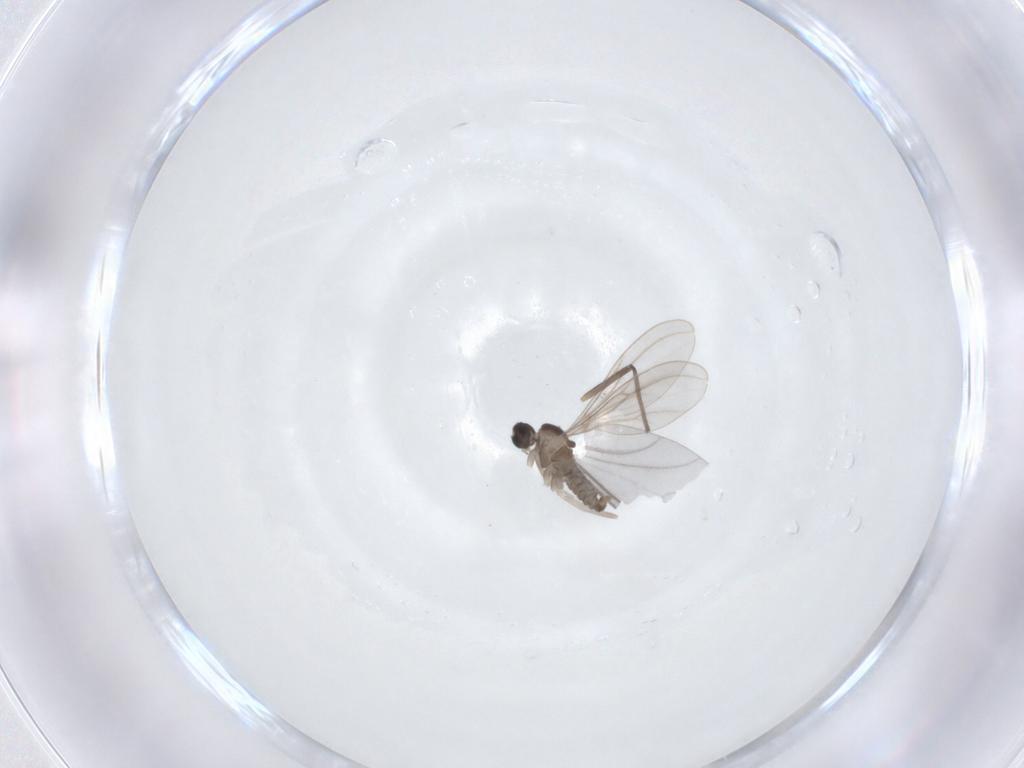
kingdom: Animalia
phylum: Arthropoda
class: Insecta
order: Diptera
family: Cecidomyiidae
